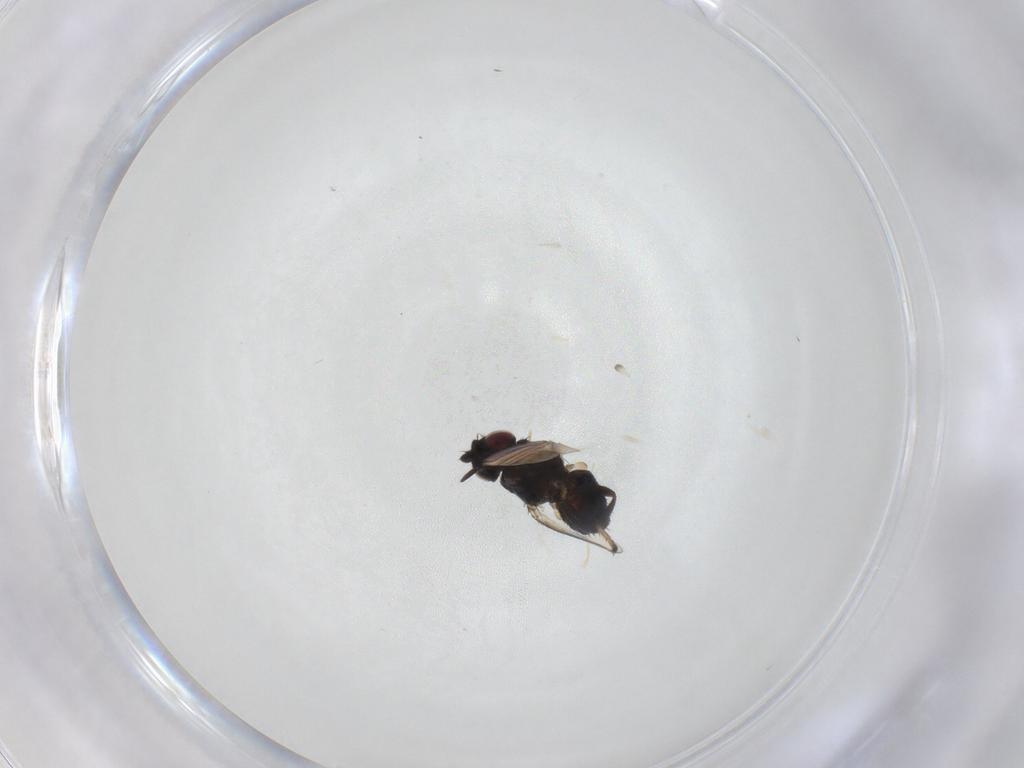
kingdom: Animalia
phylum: Arthropoda
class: Insecta
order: Diptera
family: Milichiidae
